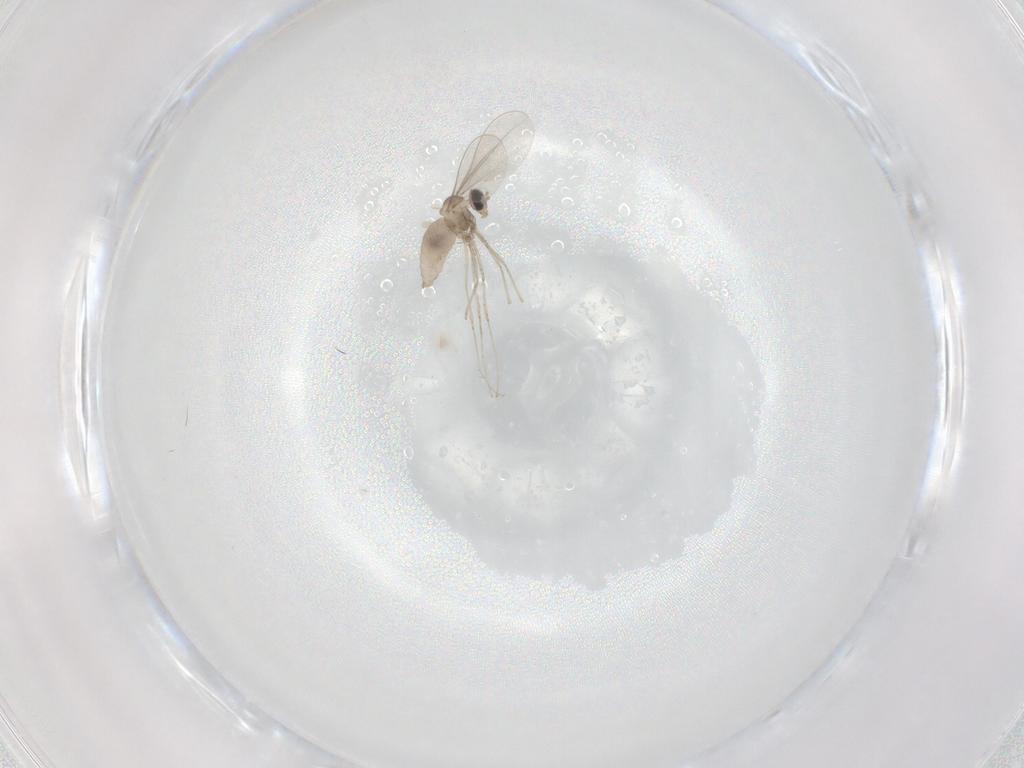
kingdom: Animalia
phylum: Arthropoda
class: Insecta
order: Diptera
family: Cecidomyiidae
